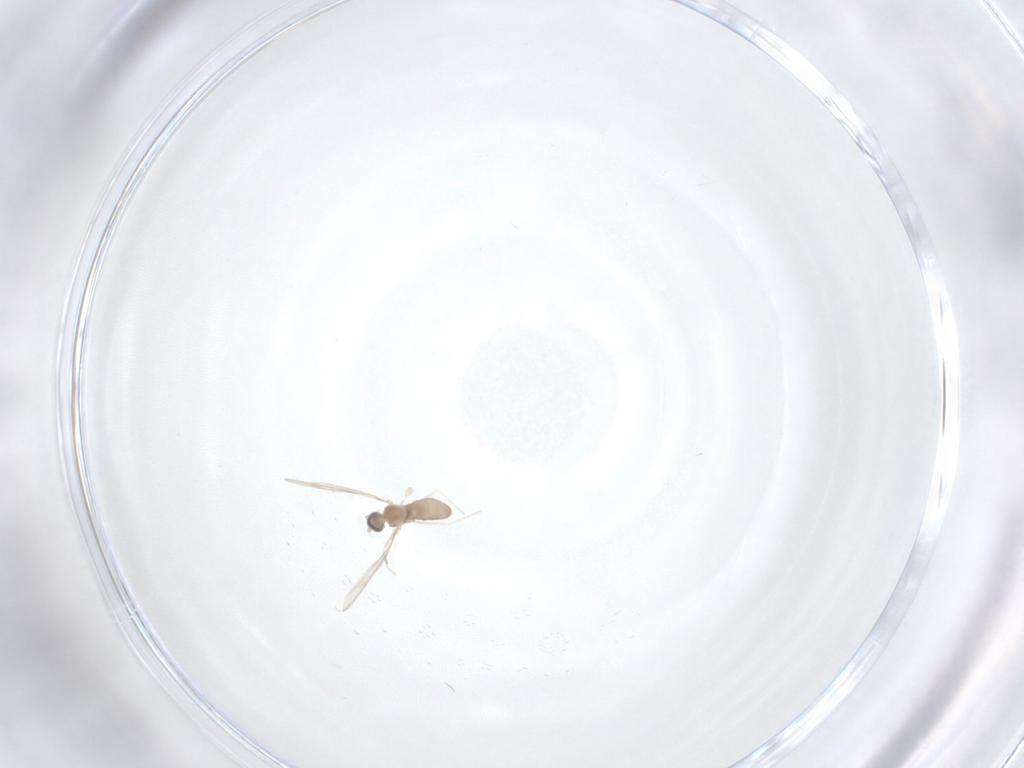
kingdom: Animalia
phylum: Arthropoda
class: Insecta
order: Diptera
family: Cecidomyiidae
